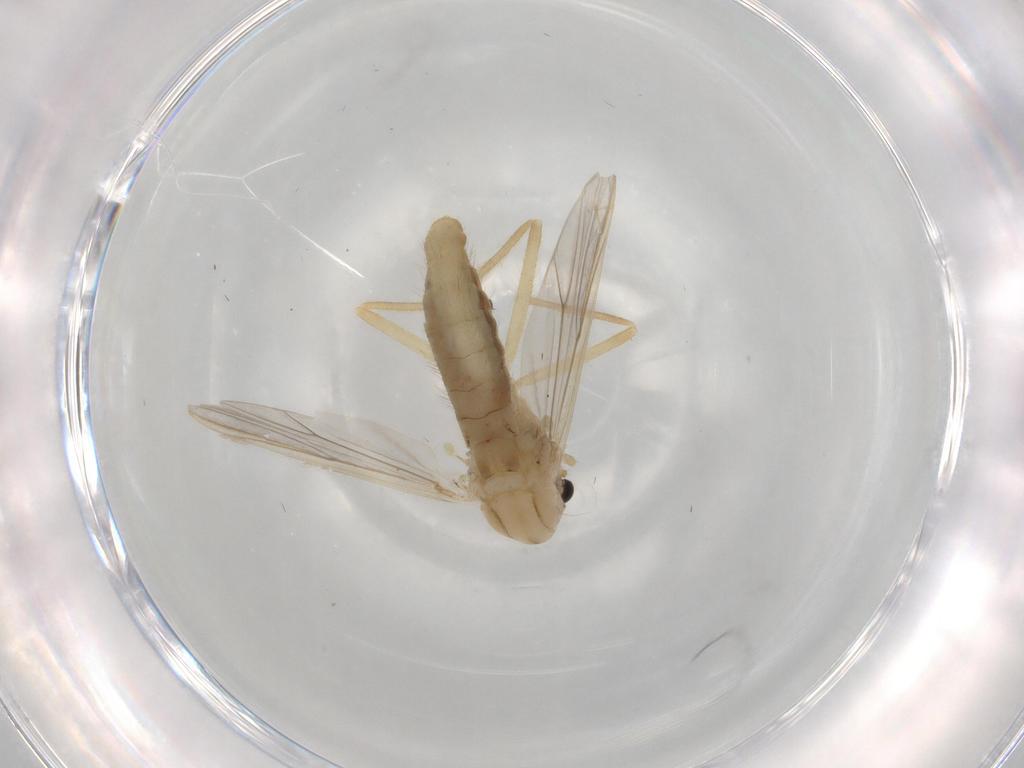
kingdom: Animalia
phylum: Arthropoda
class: Insecta
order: Diptera
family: Chironomidae
